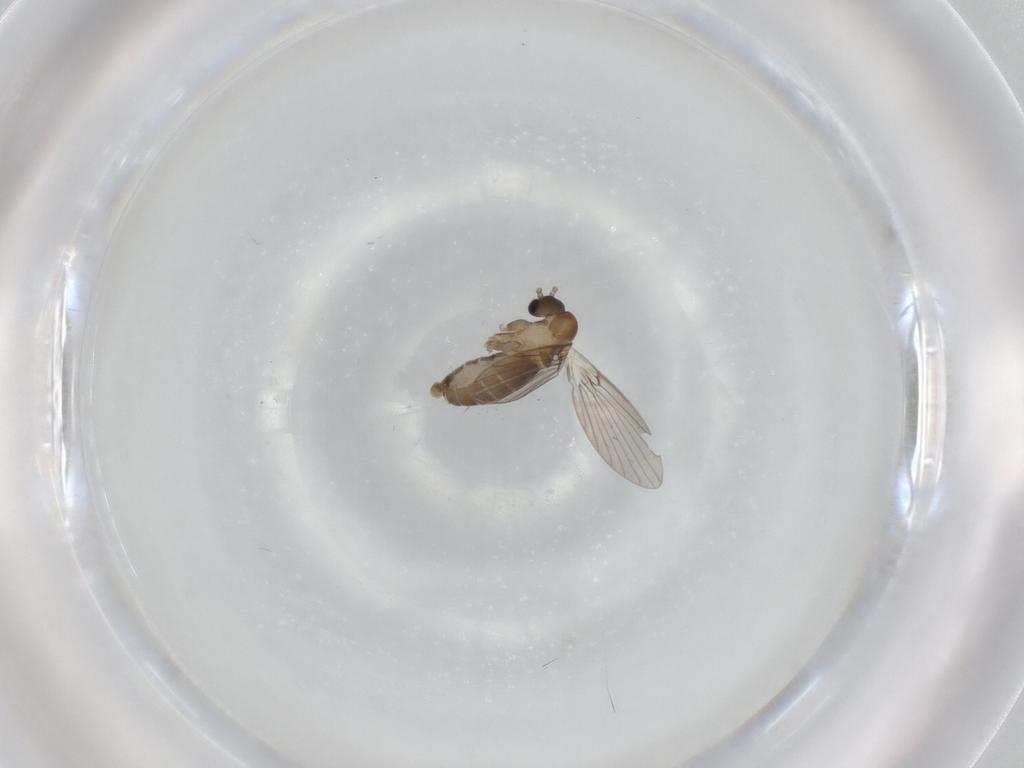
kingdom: Animalia
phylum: Arthropoda
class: Insecta
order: Diptera
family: Psychodidae
